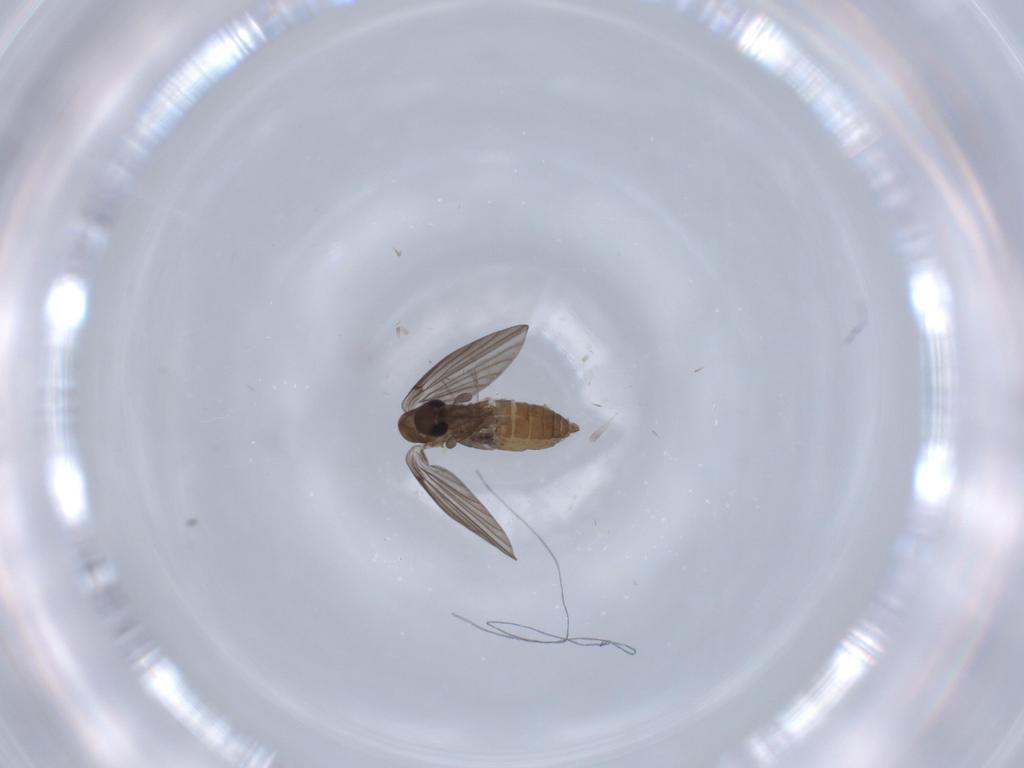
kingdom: Animalia
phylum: Arthropoda
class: Insecta
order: Diptera
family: Cecidomyiidae
